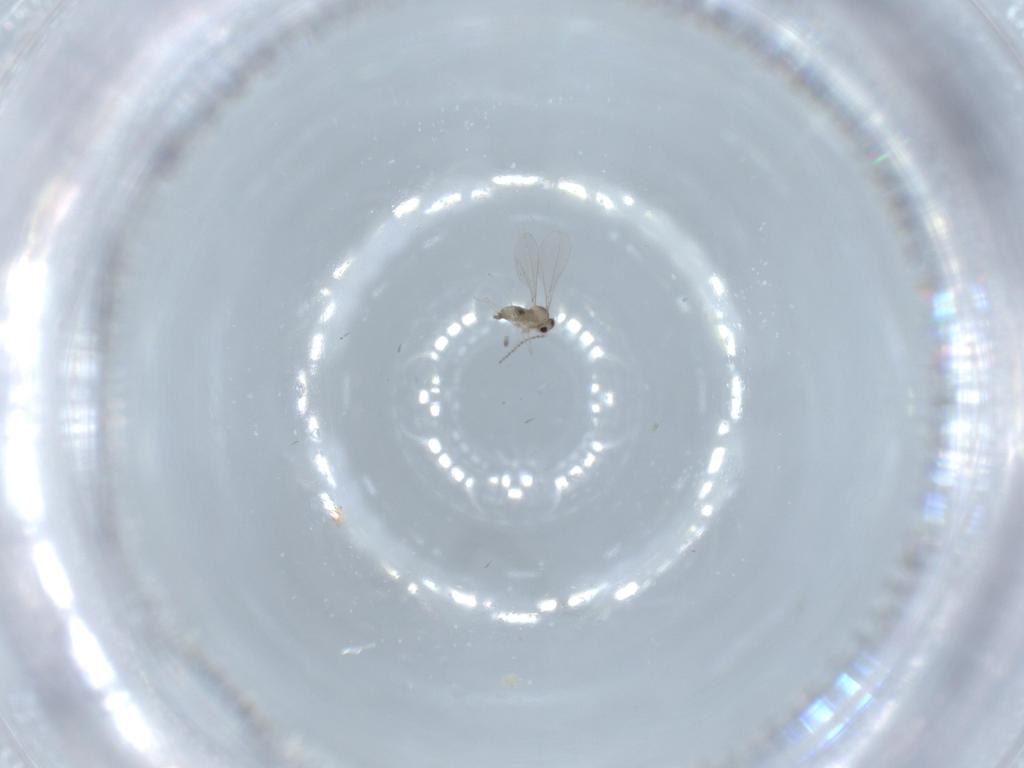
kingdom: Animalia
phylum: Arthropoda
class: Insecta
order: Diptera
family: Cecidomyiidae
